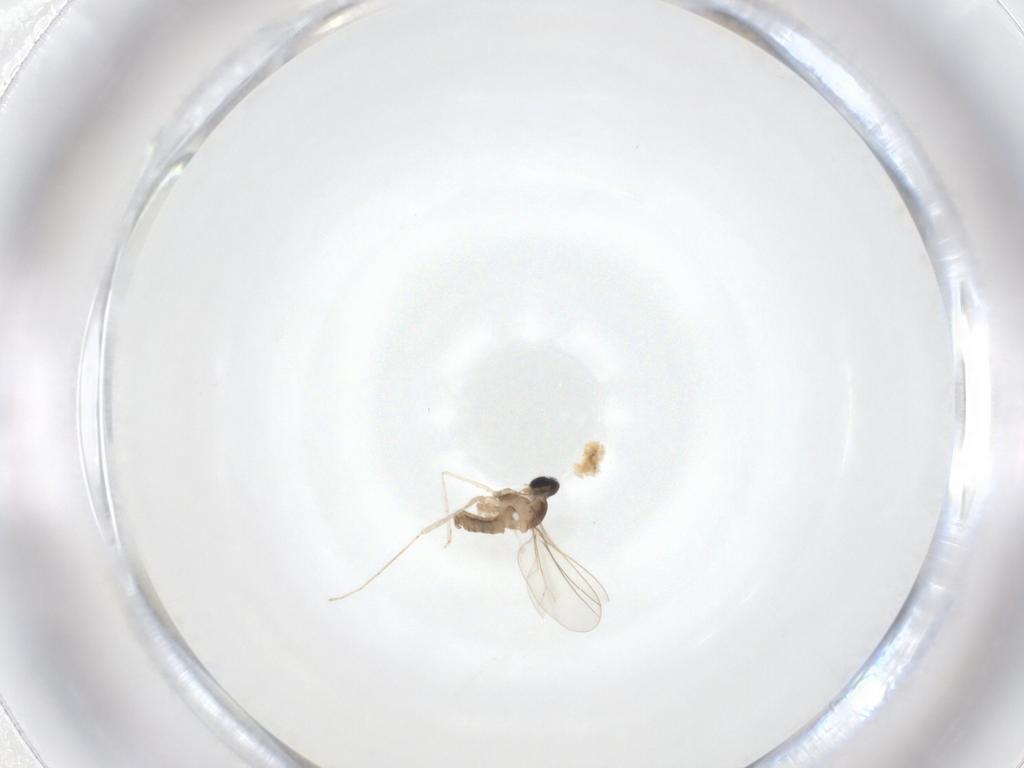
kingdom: Animalia
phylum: Arthropoda
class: Insecta
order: Diptera
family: Cecidomyiidae
